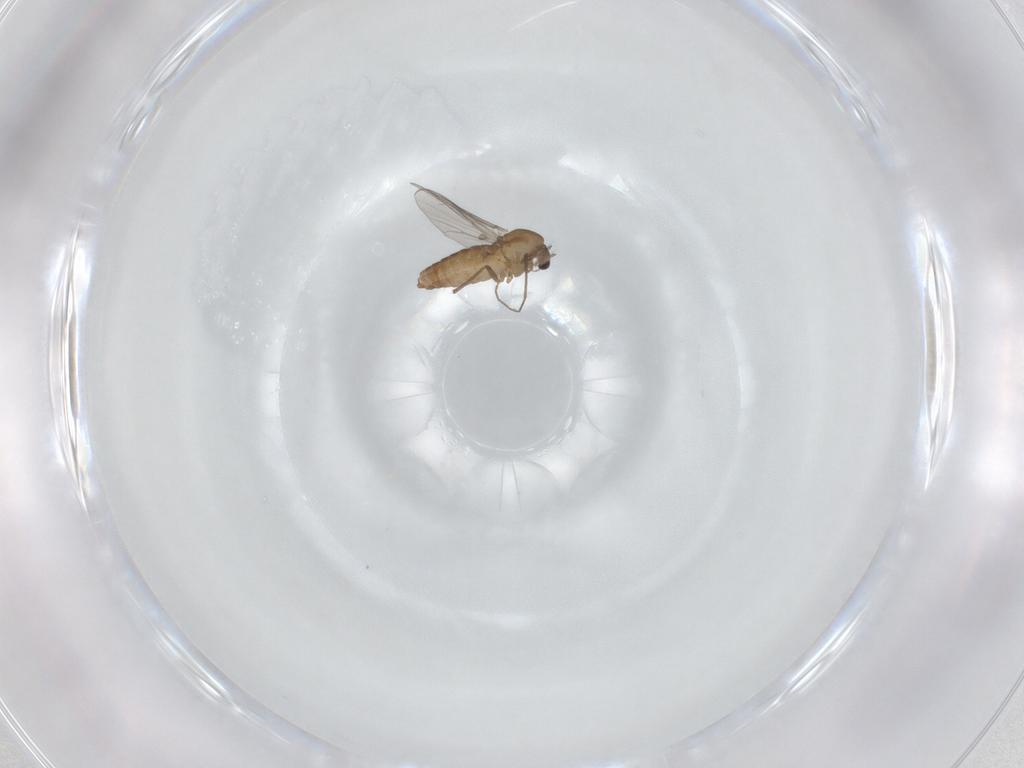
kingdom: Animalia
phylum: Arthropoda
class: Insecta
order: Diptera
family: Chironomidae
